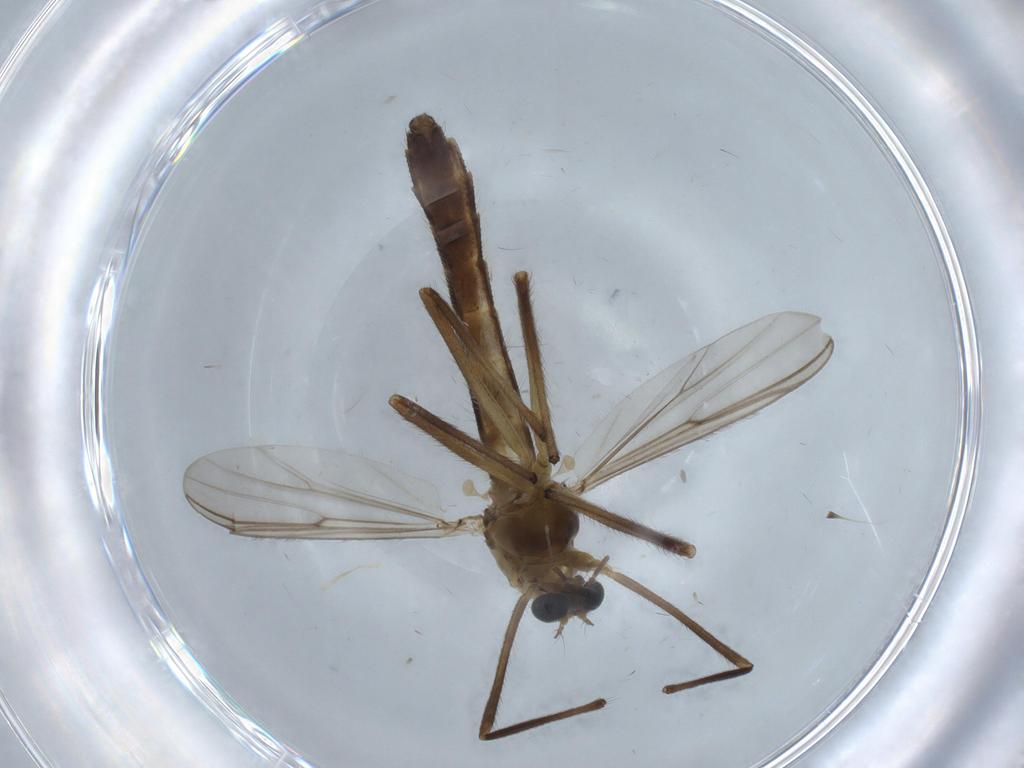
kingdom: Animalia
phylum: Arthropoda
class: Insecta
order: Diptera
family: Chironomidae
